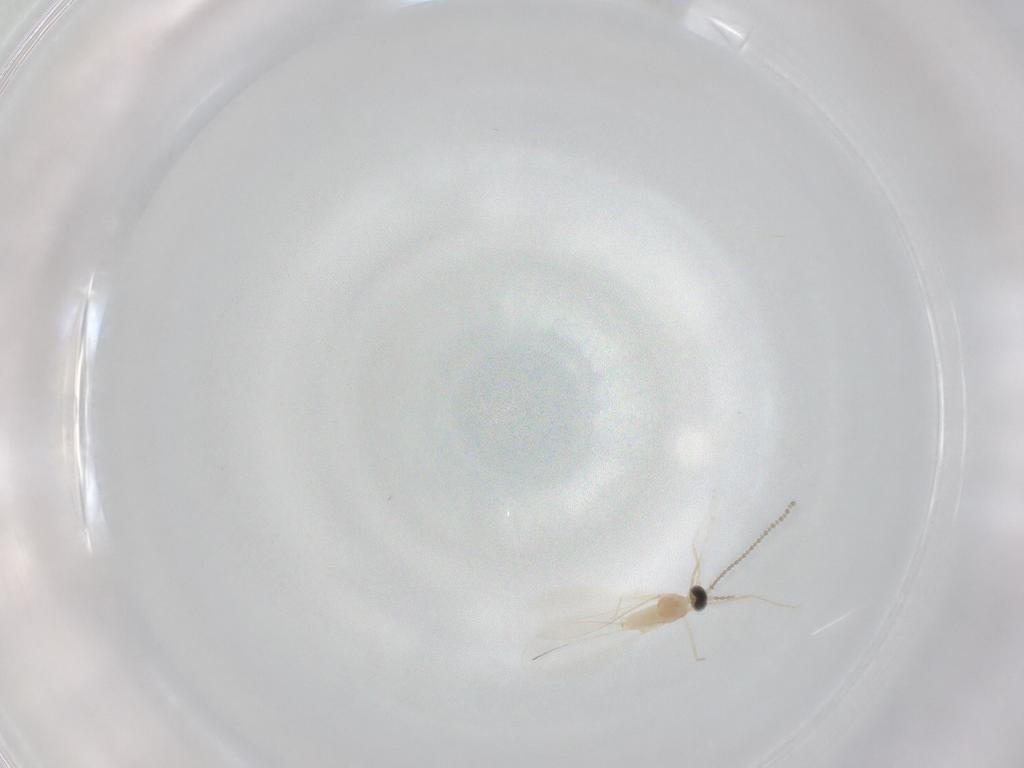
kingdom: Animalia
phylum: Arthropoda
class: Insecta
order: Diptera
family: Cecidomyiidae
